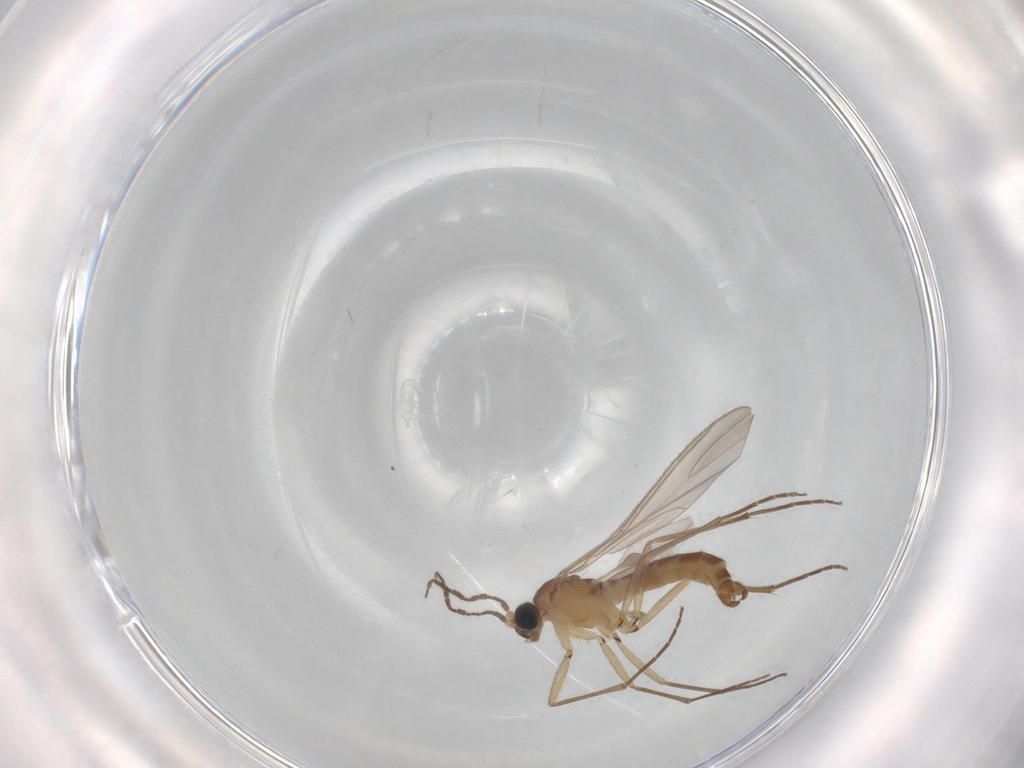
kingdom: Animalia
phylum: Arthropoda
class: Insecta
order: Diptera
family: Sciaridae
